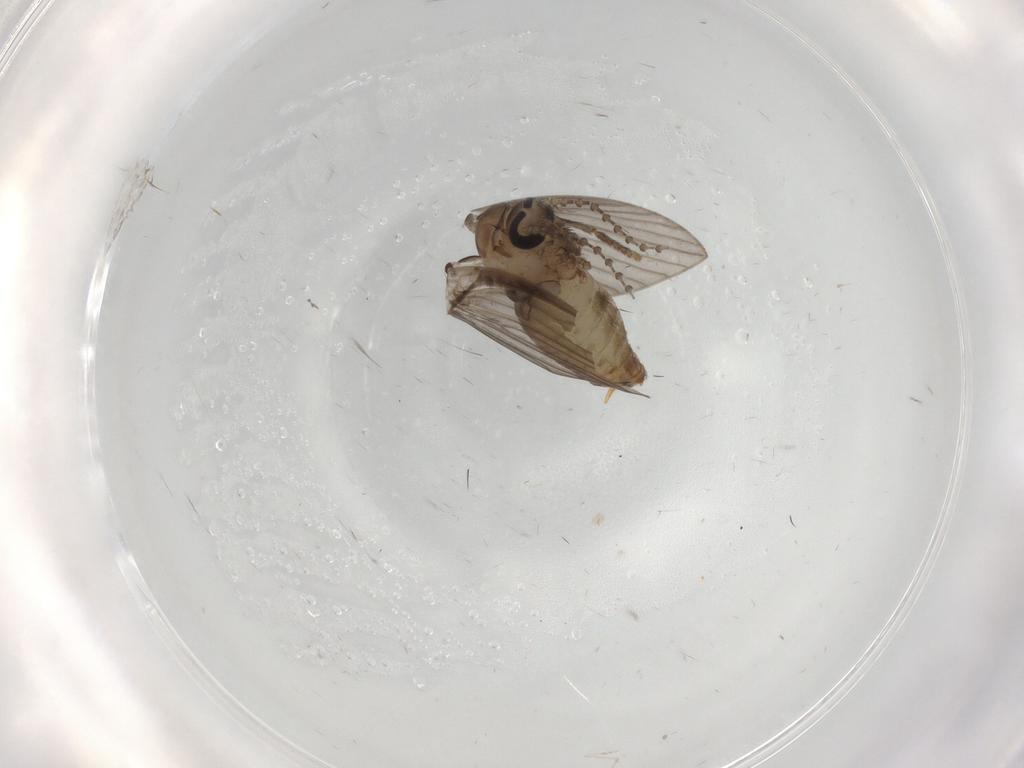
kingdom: Animalia
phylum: Arthropoda
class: Insecta
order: Diptera
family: Psychodidae
